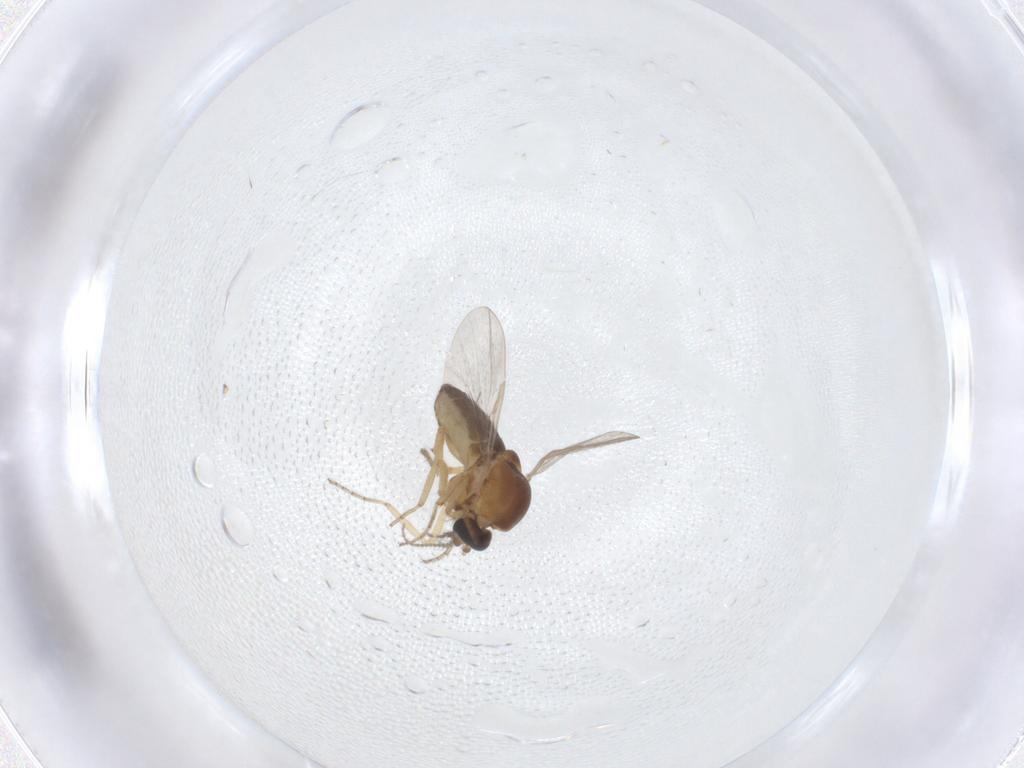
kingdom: Animalia
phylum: Arthropoda
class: Insecta
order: Diptera
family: Ceratopogonidae
